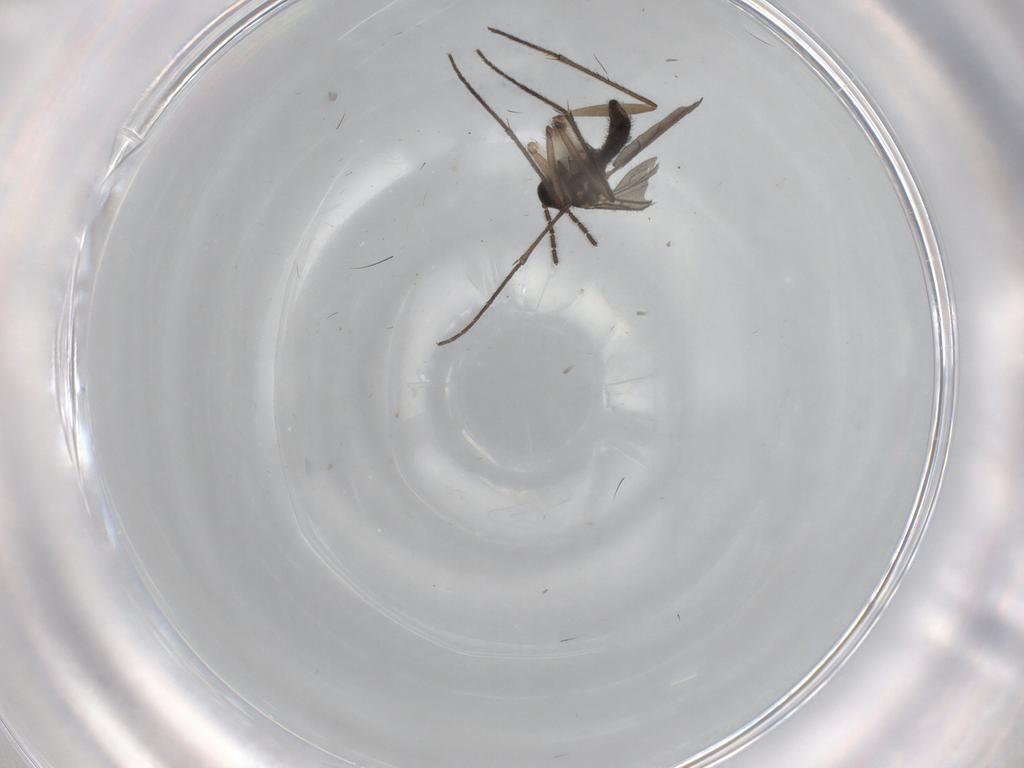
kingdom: Animalia
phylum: Arthropoda
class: Insecta
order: Diptera
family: Sciaridae
